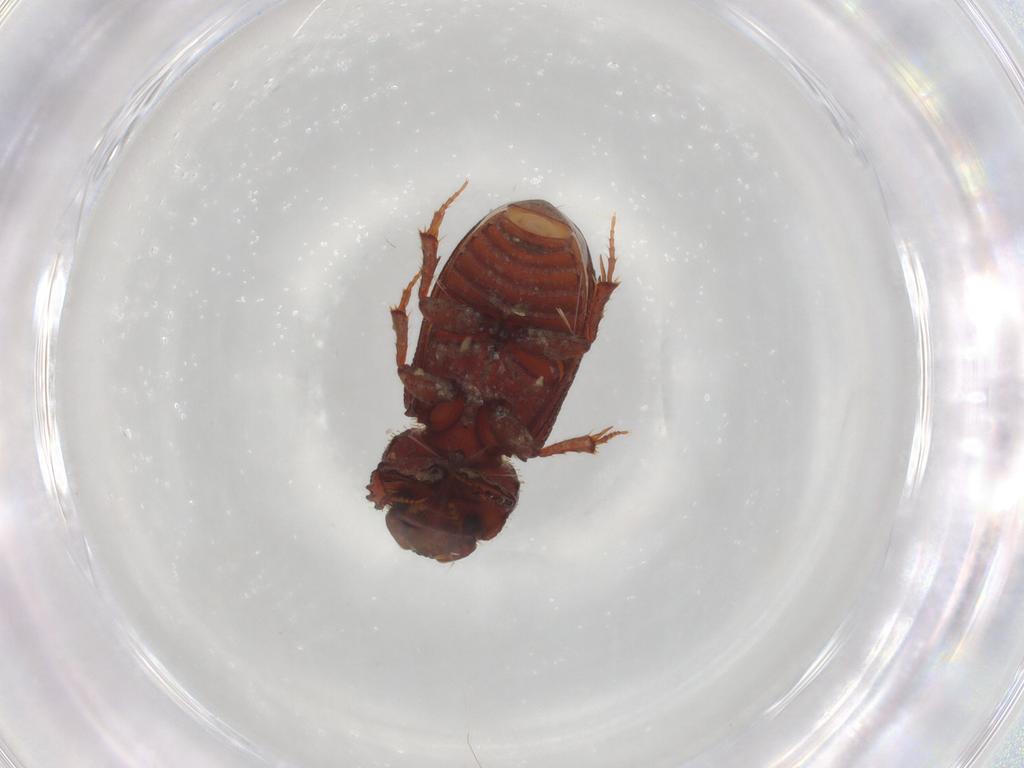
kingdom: Animalia
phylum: Arthropoda
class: Insecta
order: Coleoptera
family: Scarabaeidae
